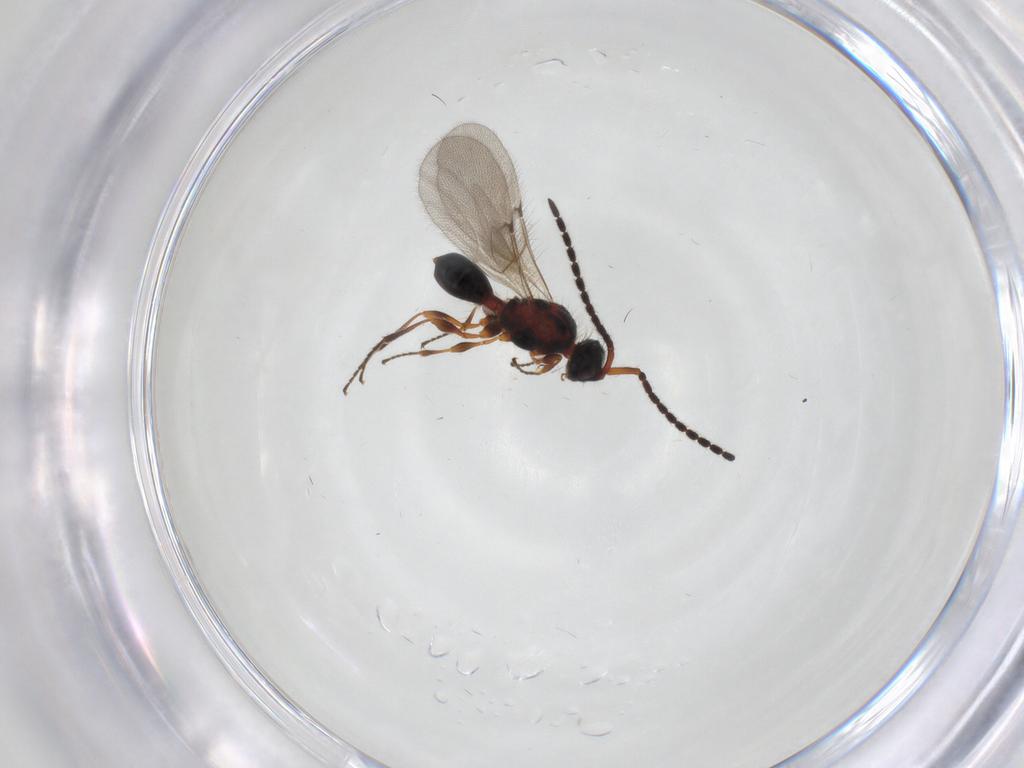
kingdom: Animalia
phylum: Arthropoda
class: Insecta
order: Hymenoptera
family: Diapriidae
